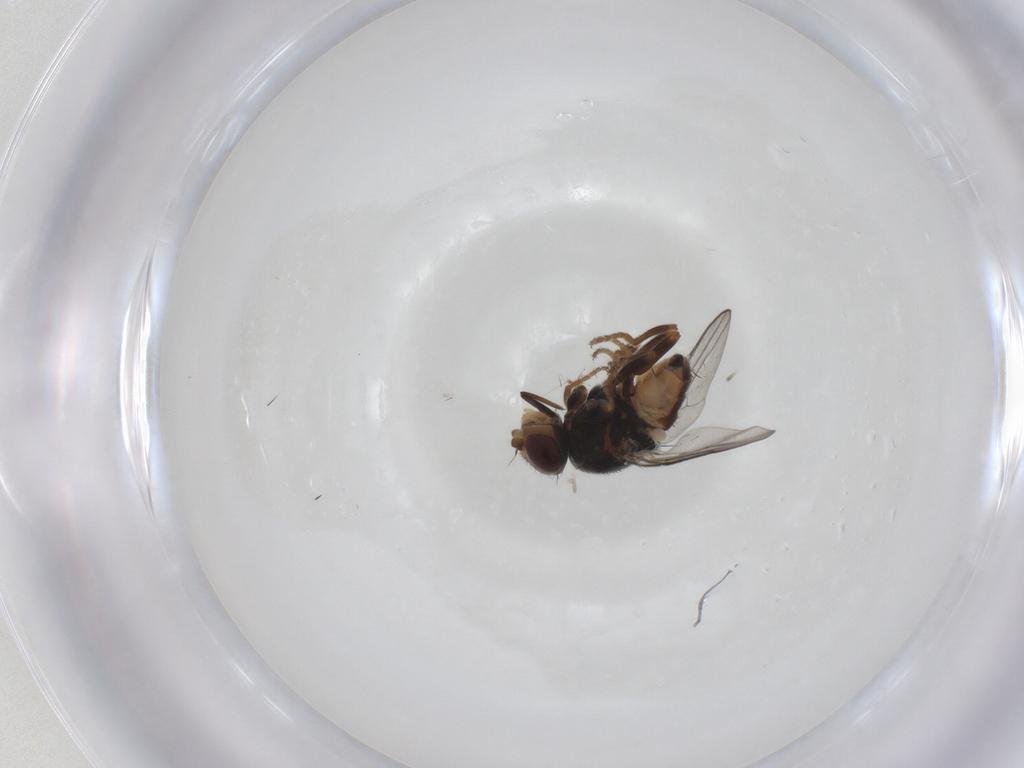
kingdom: Animalia
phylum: Arthropoda
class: Insecta
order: Diptera
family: Chloropidae
